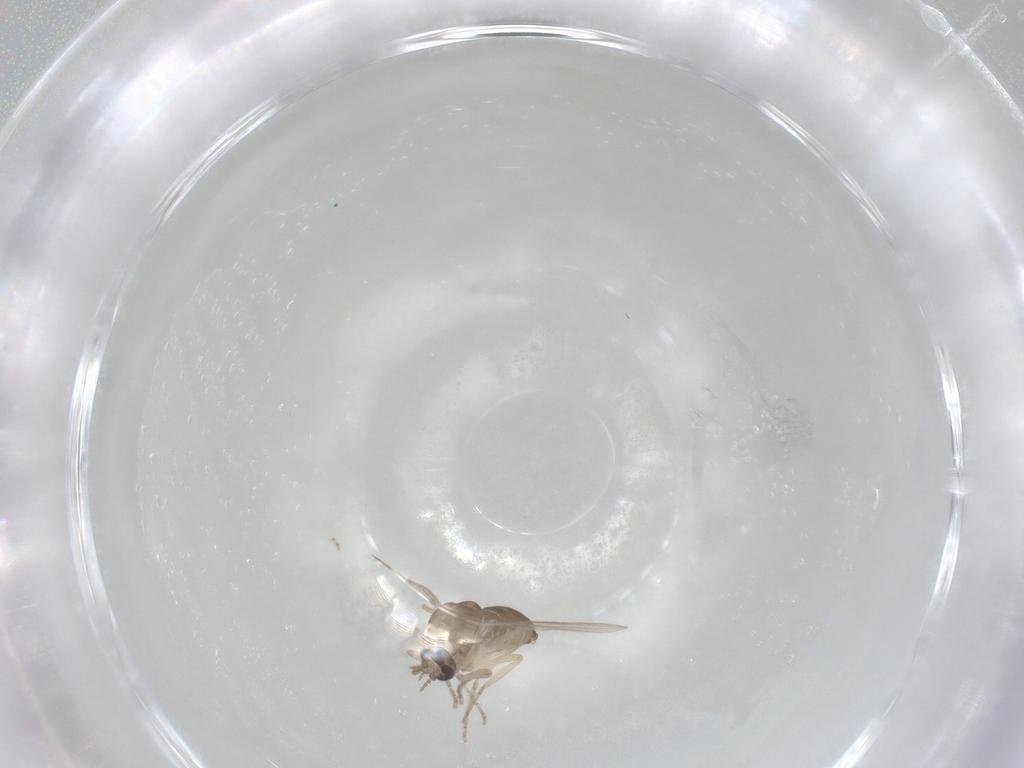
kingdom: Animalia
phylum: Arthropoda
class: Insecta
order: Diptera
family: Ceratopogonidae
